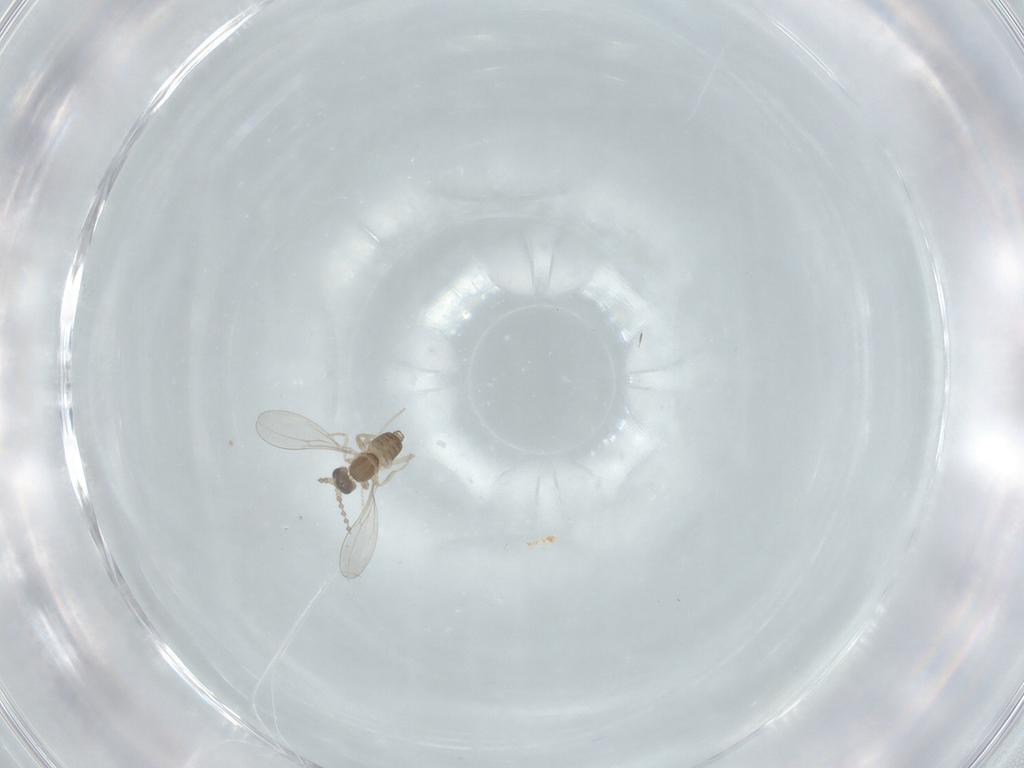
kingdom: Animalia
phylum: Arthropoda
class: Insecta
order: Diptera
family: Cecidomyiidae
